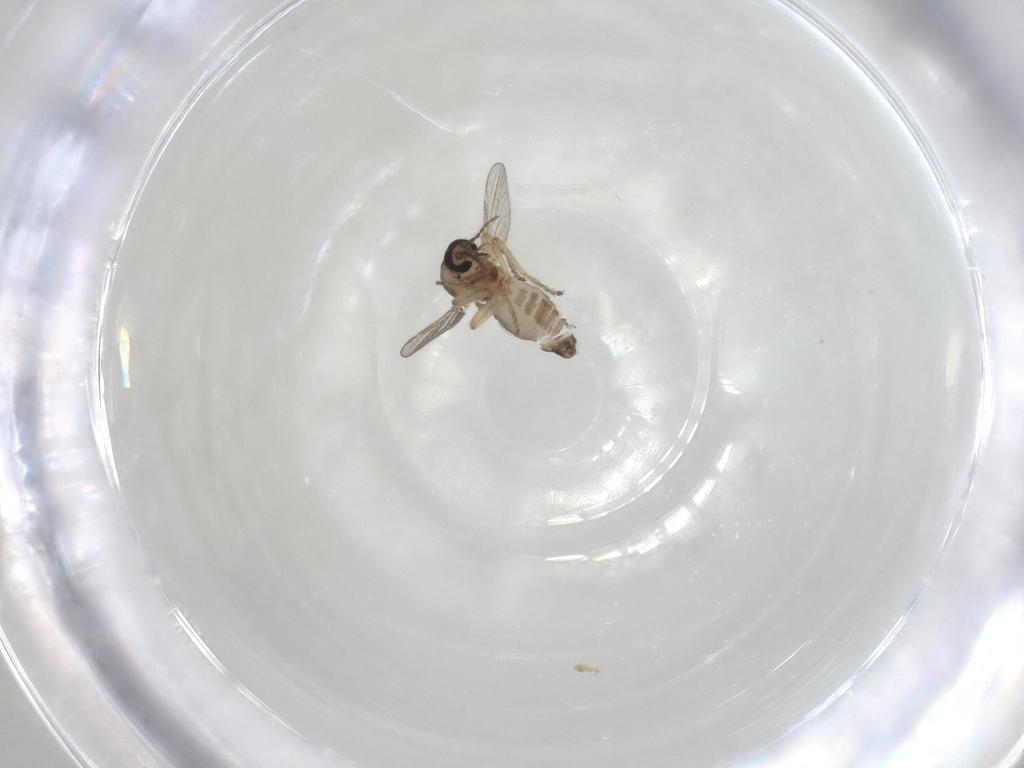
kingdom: Animalia
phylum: Arthropoda
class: Insecta
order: Diptera
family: Ceratopogonidae
